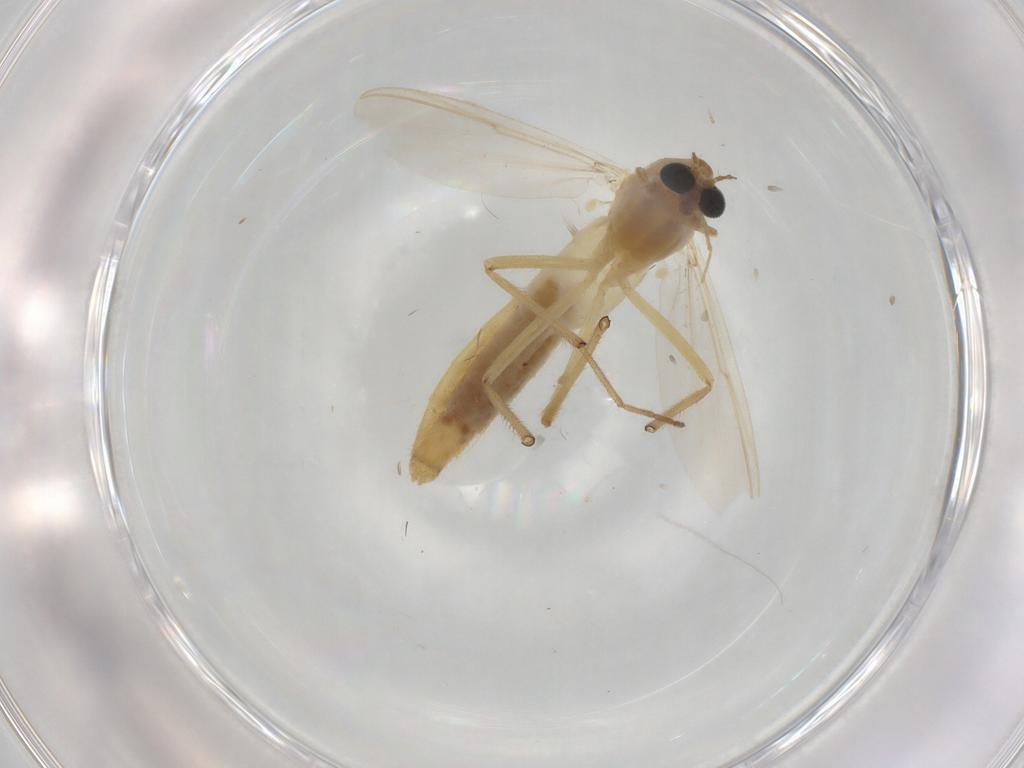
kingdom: Animalia
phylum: Arthropoda
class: Insecta
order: Diptera
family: Chironomidae
